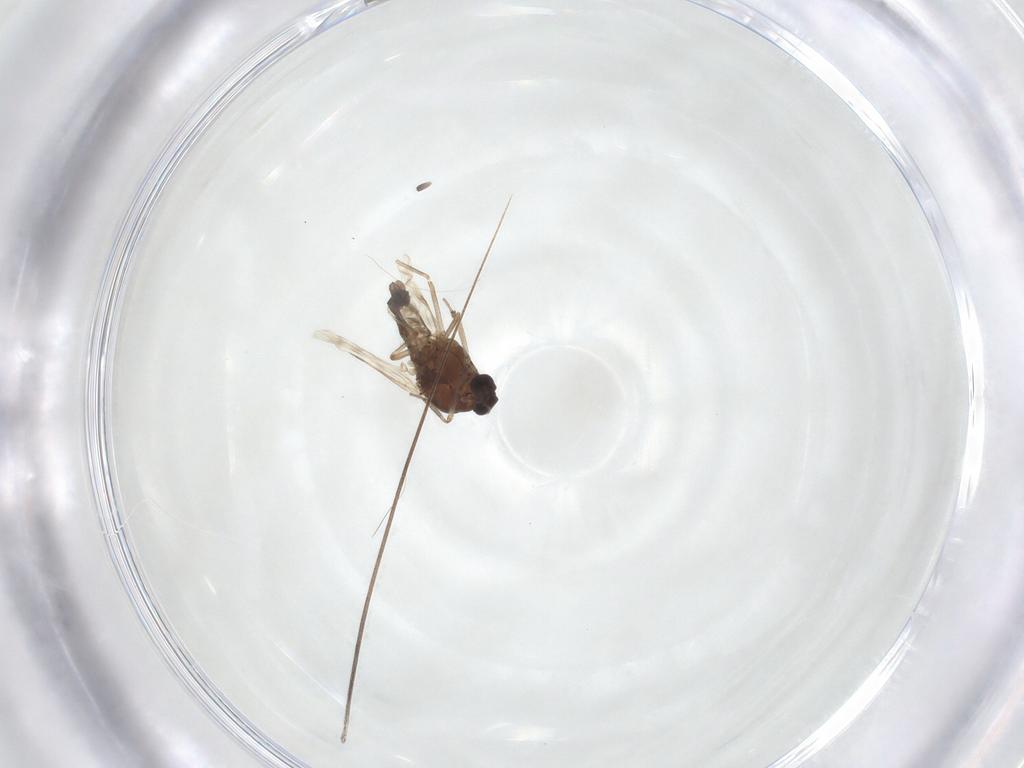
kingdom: Animalia
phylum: Arthropoda
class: Insecta
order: Diptera
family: Ceratopogonidae
